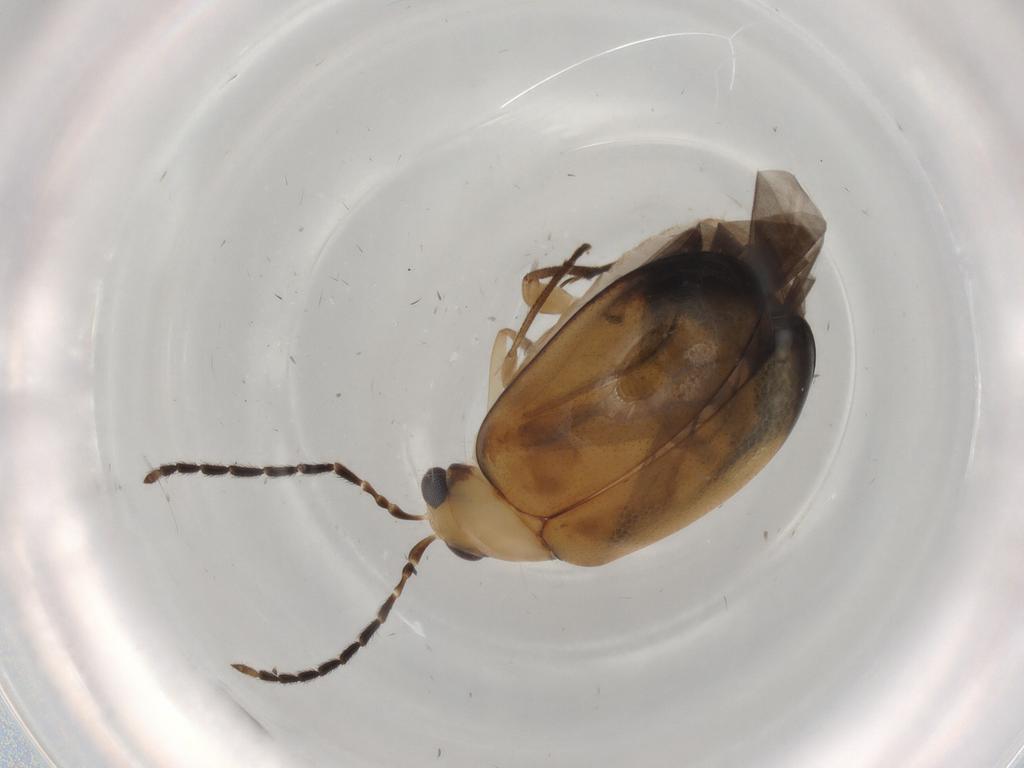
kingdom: Animalia
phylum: Arthropoda
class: Insecta
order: Coleoptera
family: Chrysomelidae
